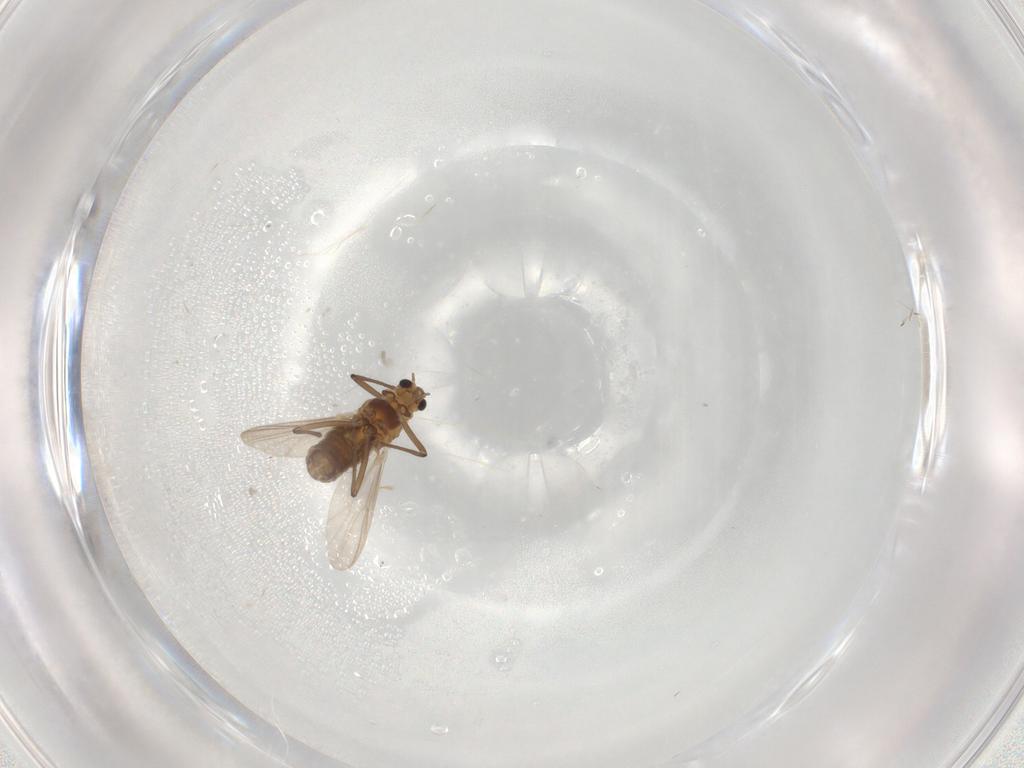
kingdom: Animalia
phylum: Arthropoda
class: Insecta
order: Diptera
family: Chironomidae
